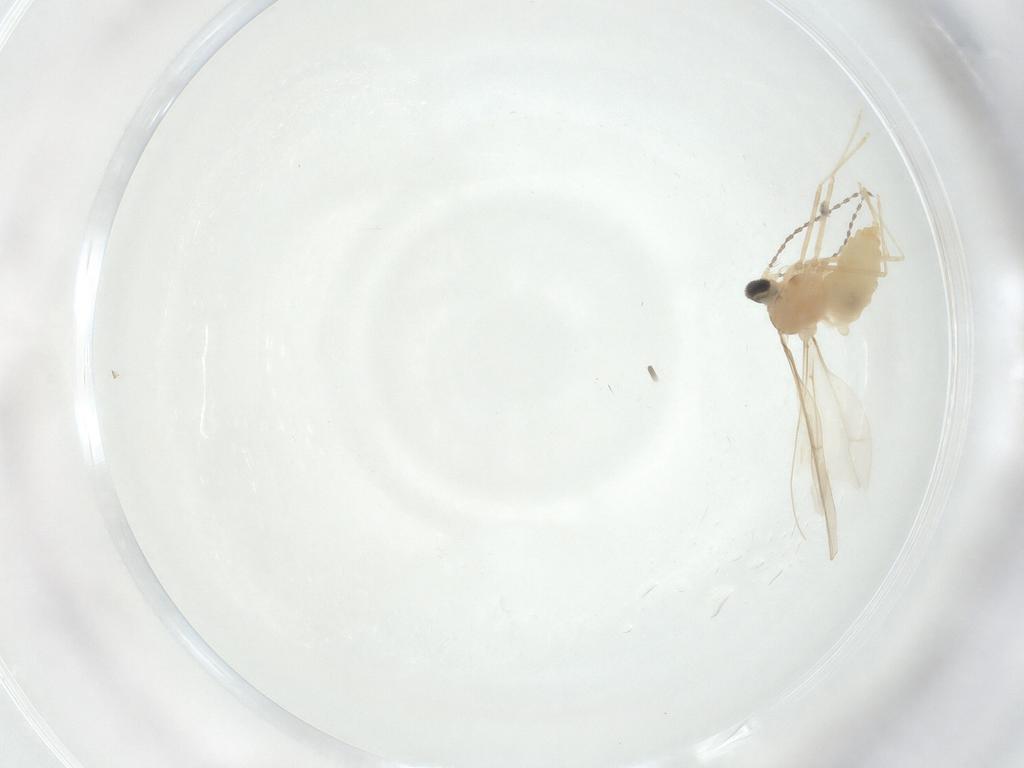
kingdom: Animalia
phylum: Arthropoda
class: Insecta
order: Diptera
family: Cecidomyiidae
